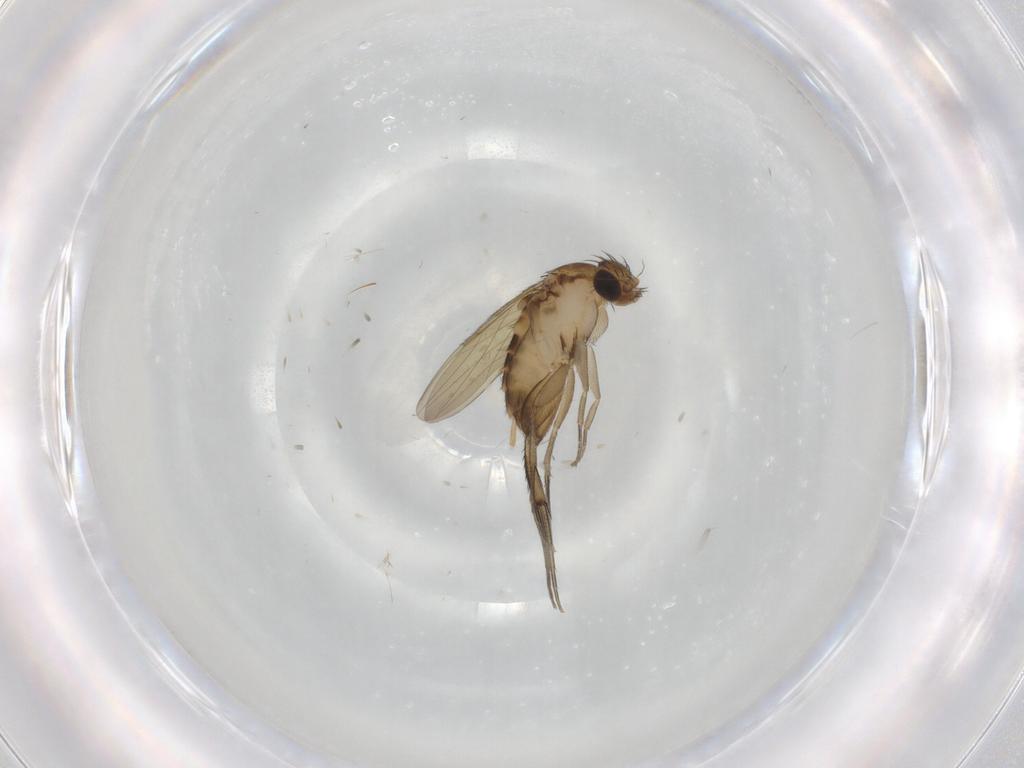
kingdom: Animalia
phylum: Arthropoda
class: Insecta
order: Diptera
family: Phoridae
